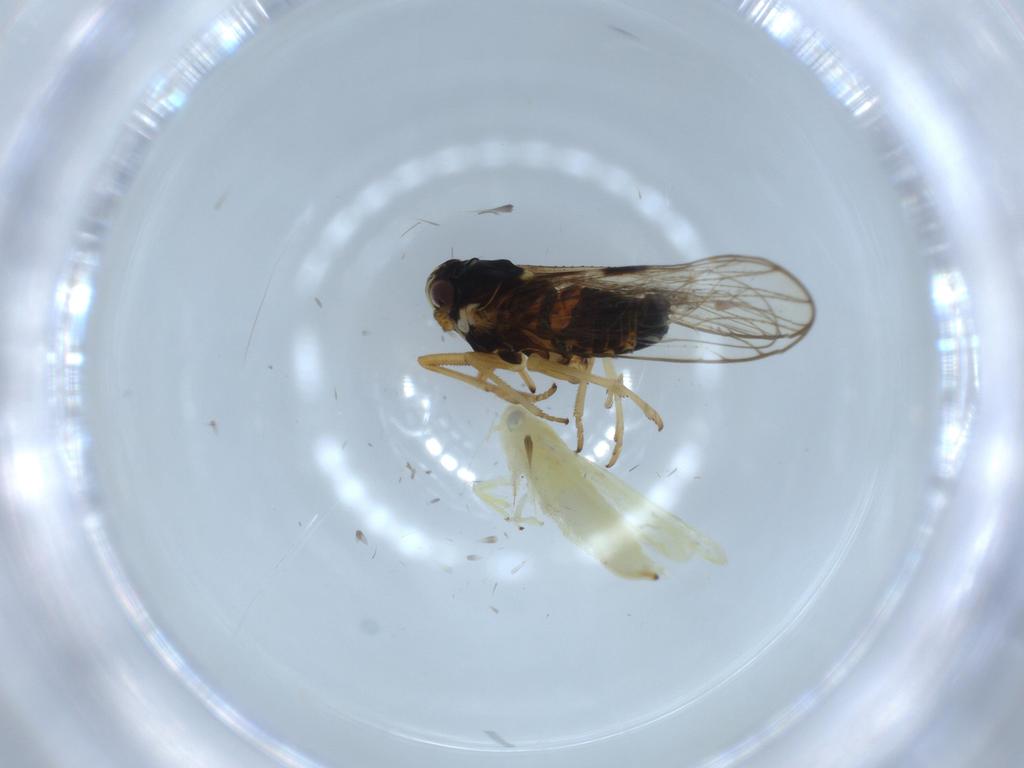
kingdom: Animalia
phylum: Arthropoda
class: Insecta
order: Hemiptera
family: Cicadellidae
